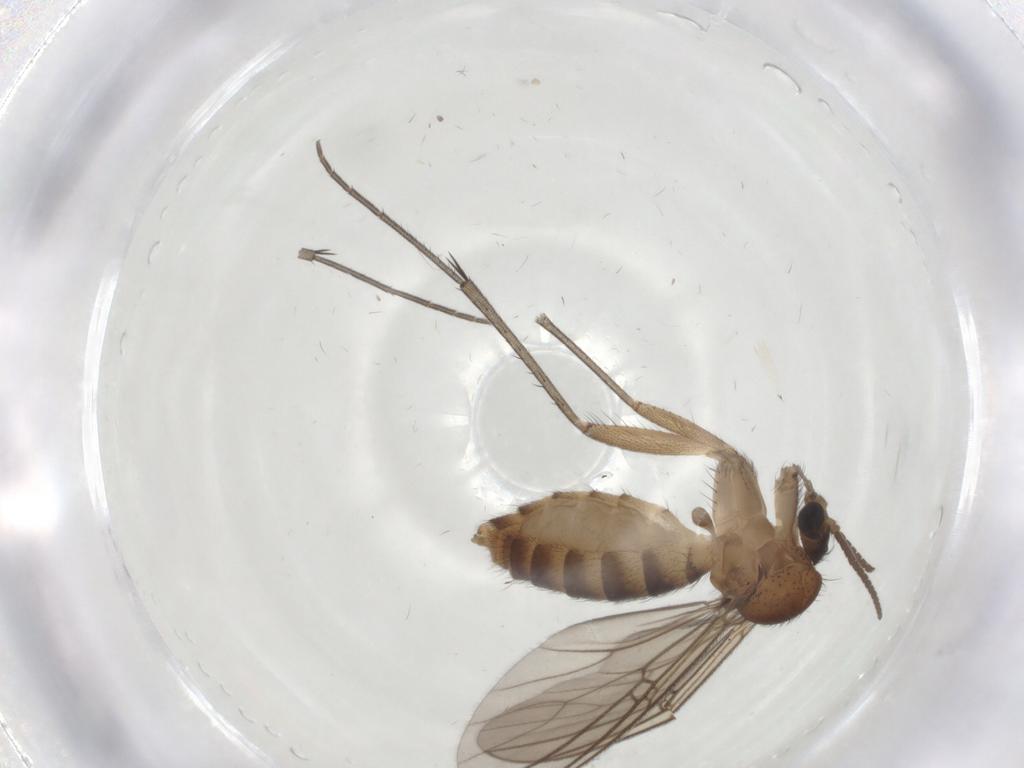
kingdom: Animalia
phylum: Arthropoda
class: Insecta
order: Diptera
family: Mycetophilidae
